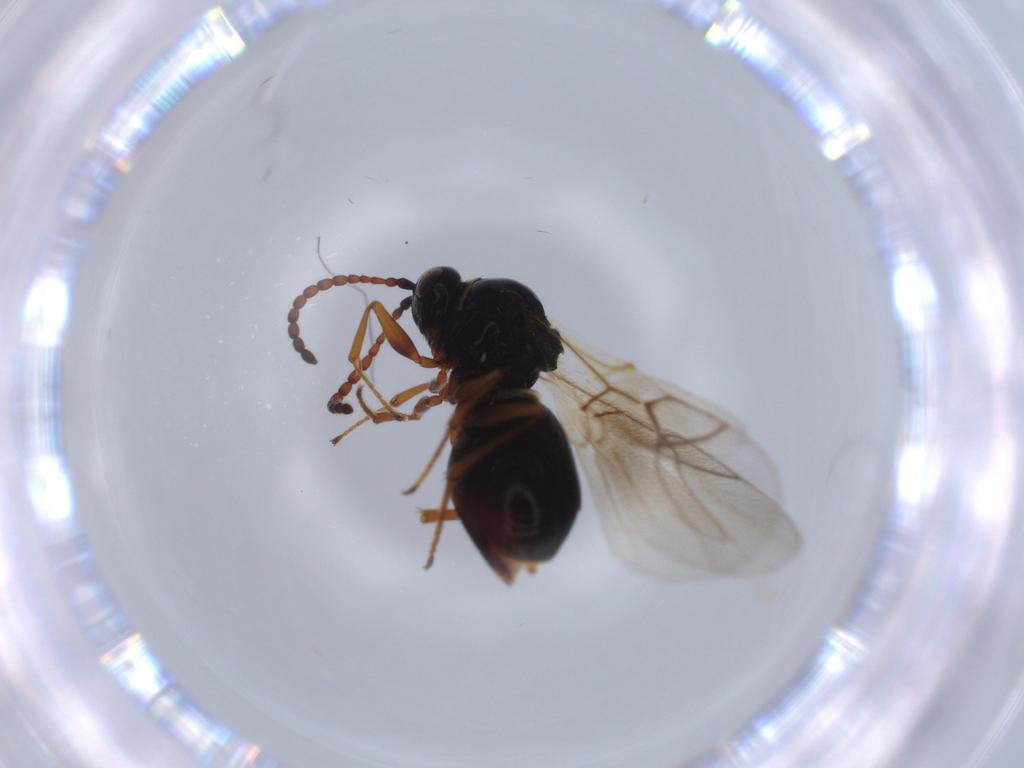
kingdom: Animalia
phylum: Arthropoda
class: Insecta
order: Hymenoptera
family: Figitidae
